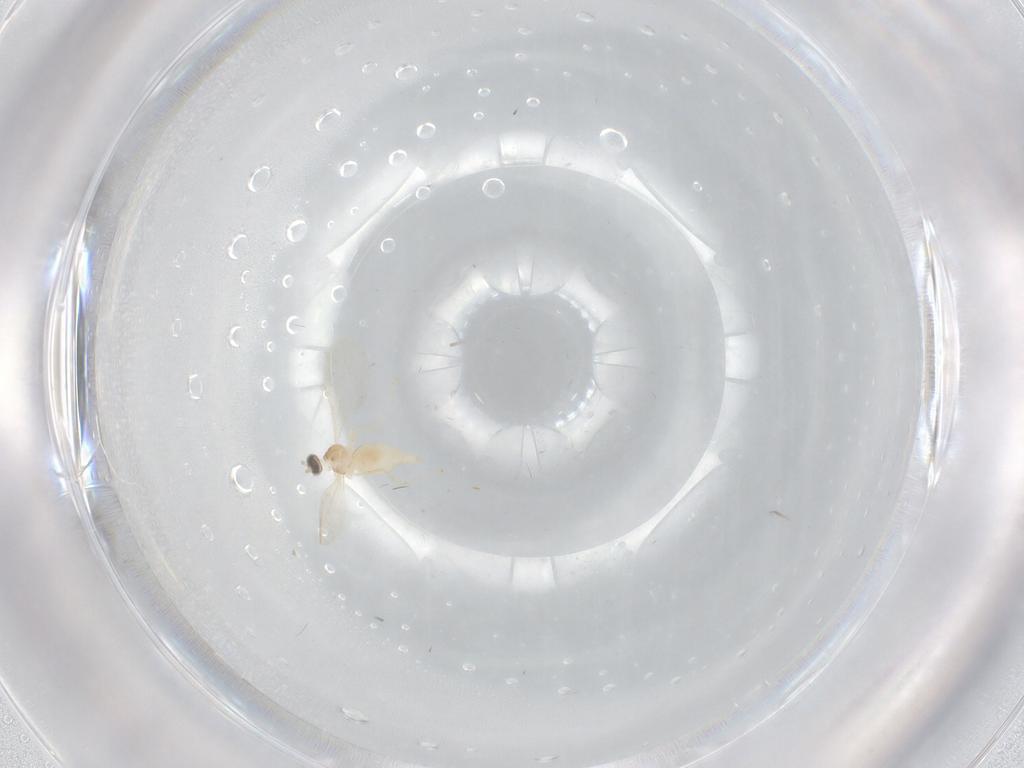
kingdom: Animalia
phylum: Arthropoda
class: Insecta
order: Diptera
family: Cecidomyiidae
